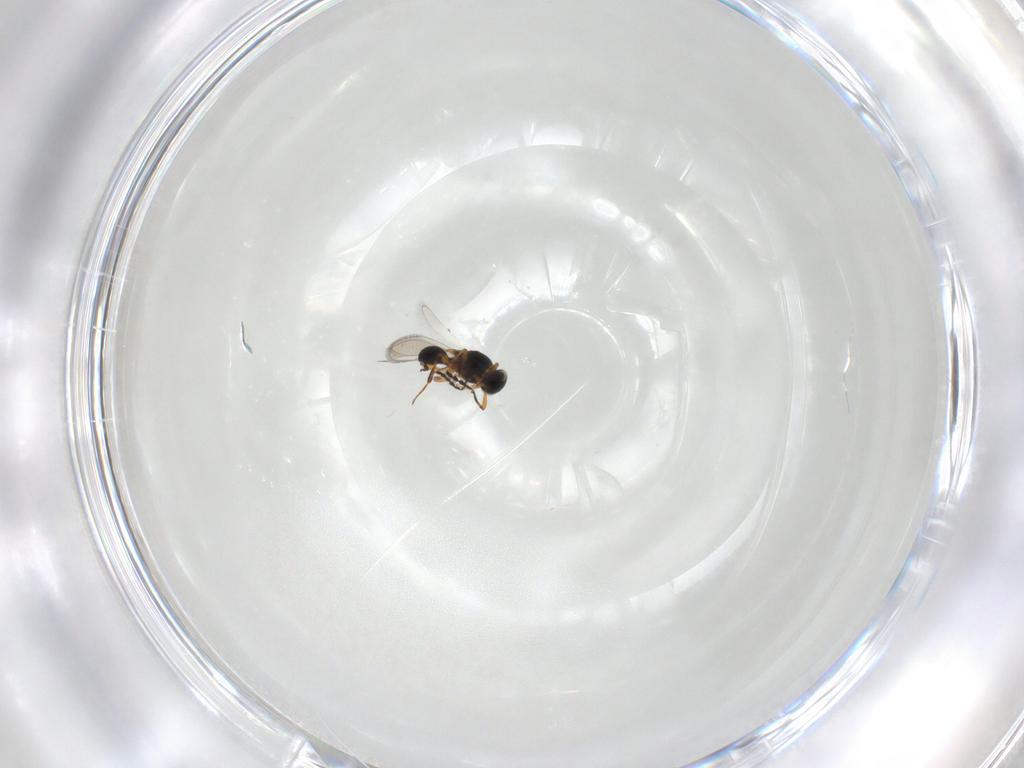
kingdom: Animalia
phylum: Arthropoda
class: Insecta
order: Hymenoptera
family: Platygastridae
